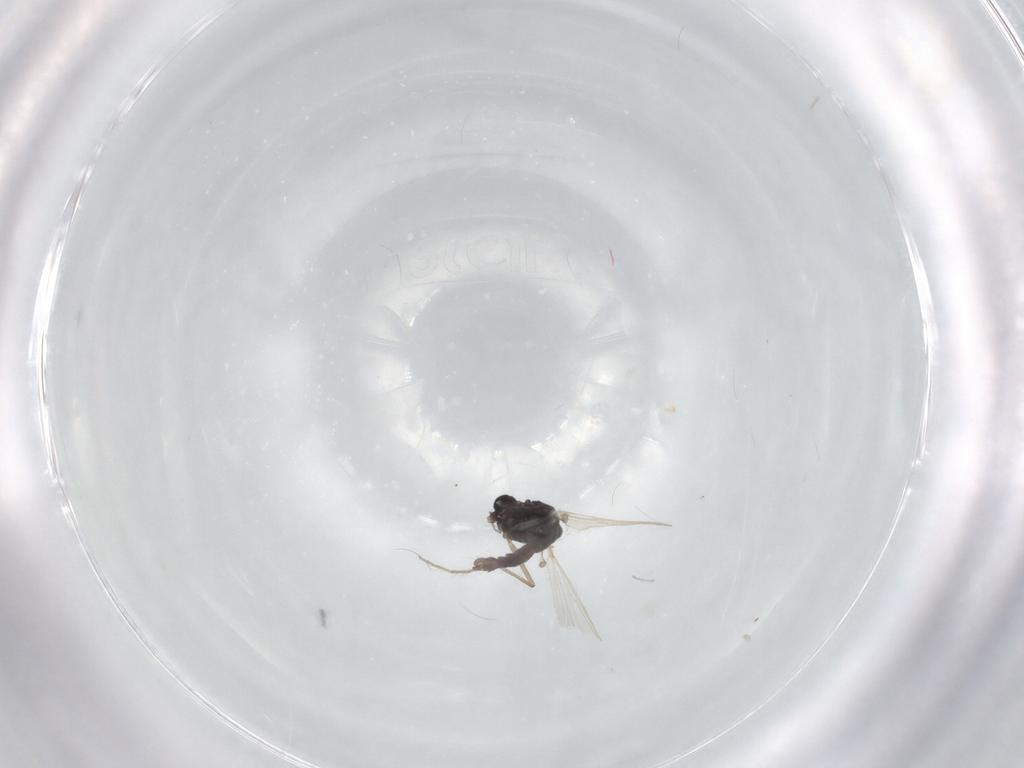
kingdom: Animalia
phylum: Arthropoda
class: Insecta
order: Diptera
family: Chironomidae
